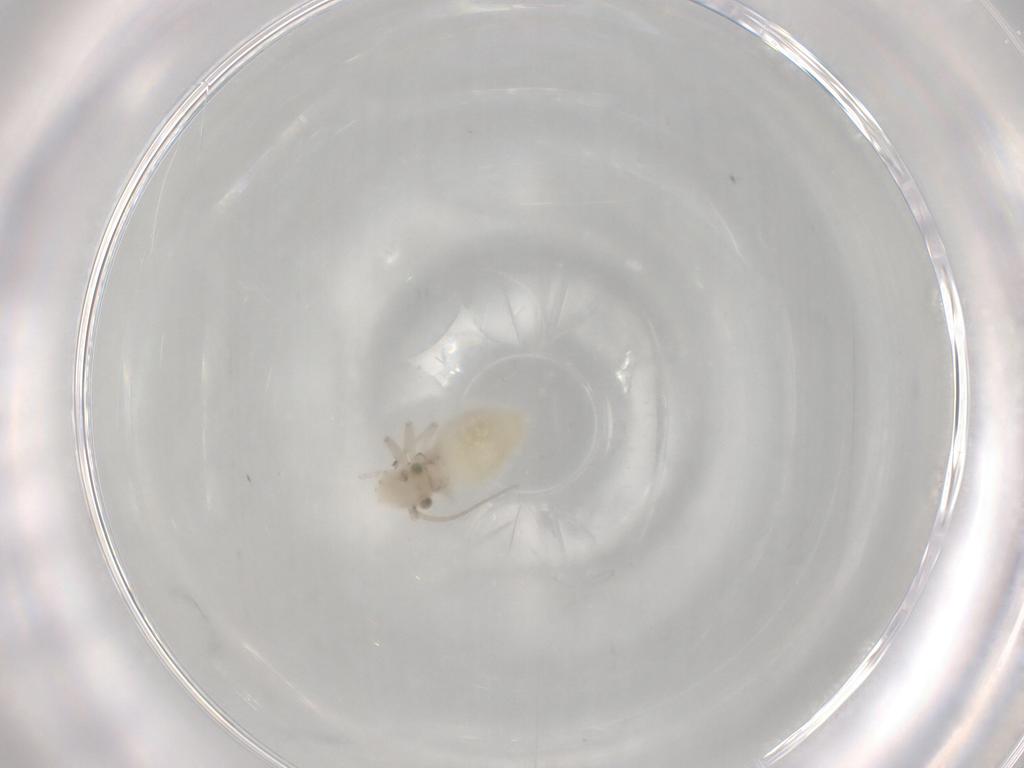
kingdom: Animalia
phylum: Arthropoda
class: Insecta
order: Psocodea
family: Caeciliusidae
